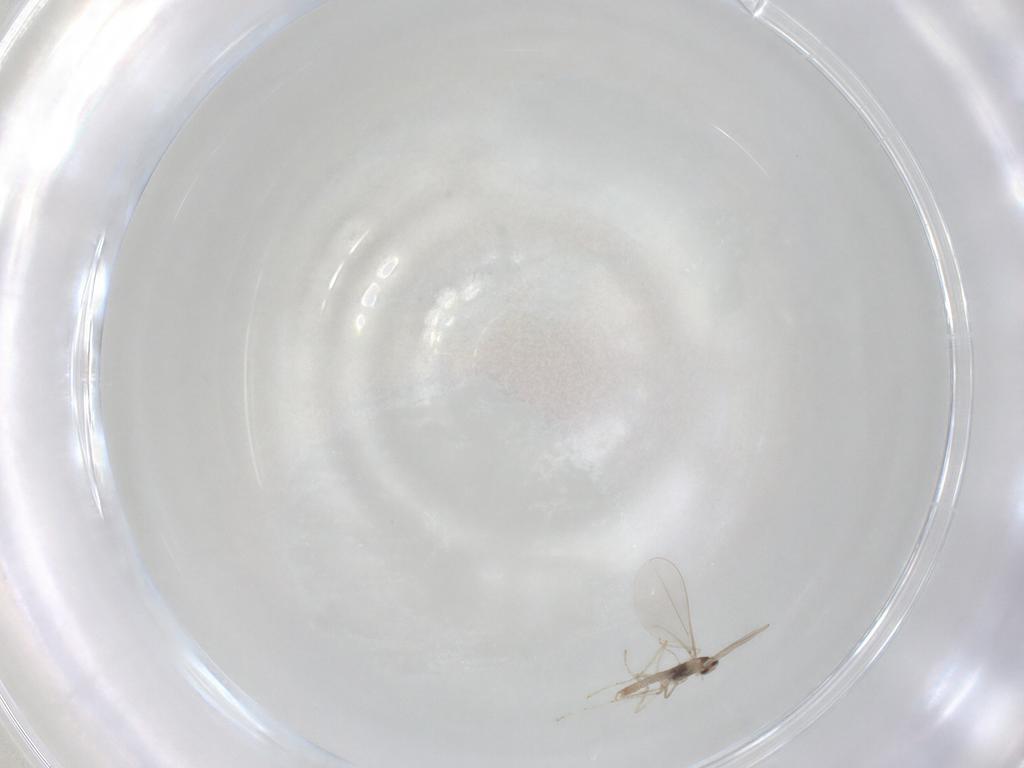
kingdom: Animalia
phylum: Arthropoda
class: Insecta
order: Diptera
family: Cecidomyiidae
